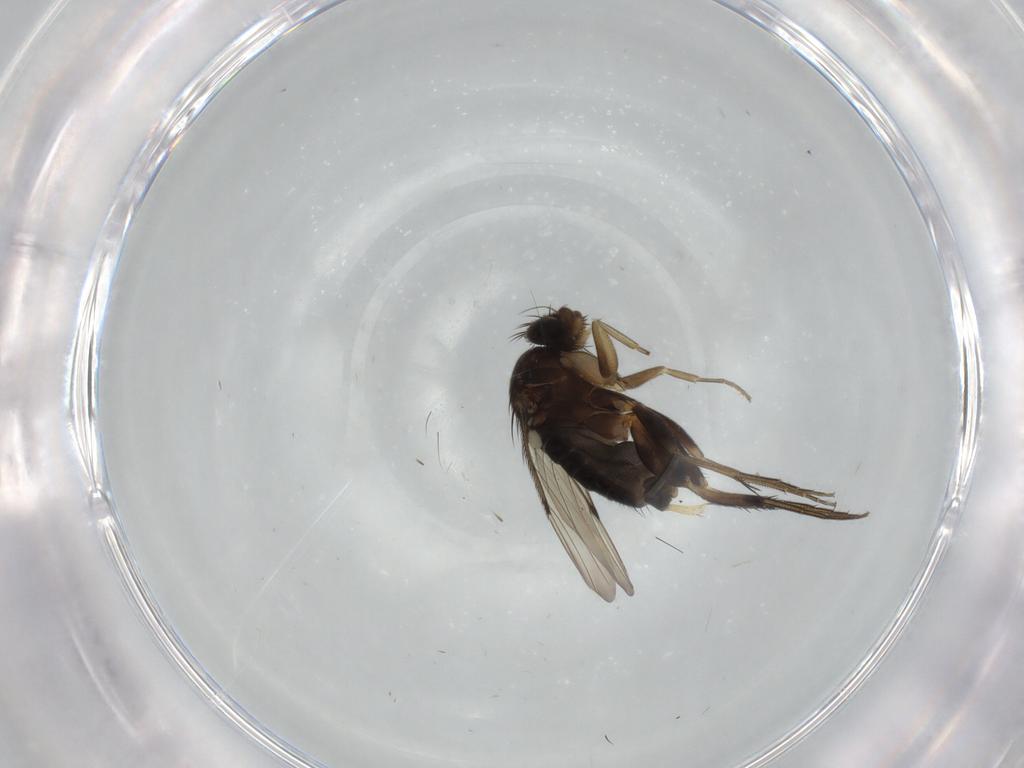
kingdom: Animalia
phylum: Arthropoda
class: Insecta
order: Diptera
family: Phoridae
